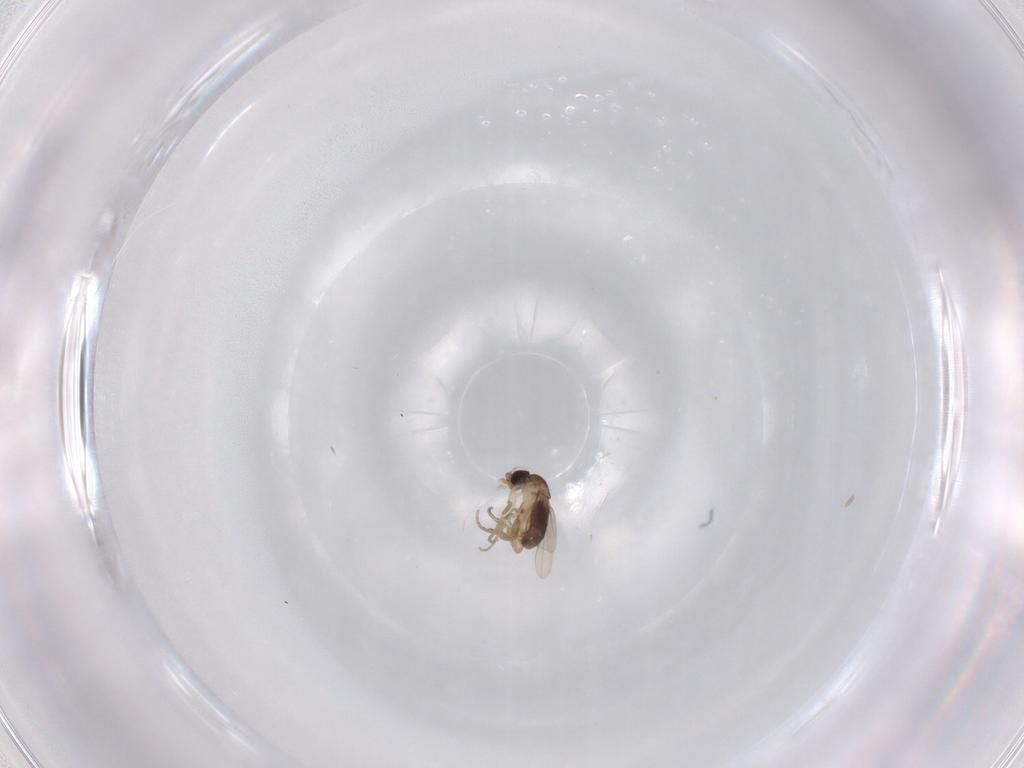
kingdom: Animalia
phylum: Arthropoda
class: Insecta
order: Diptera
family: Phoridae
